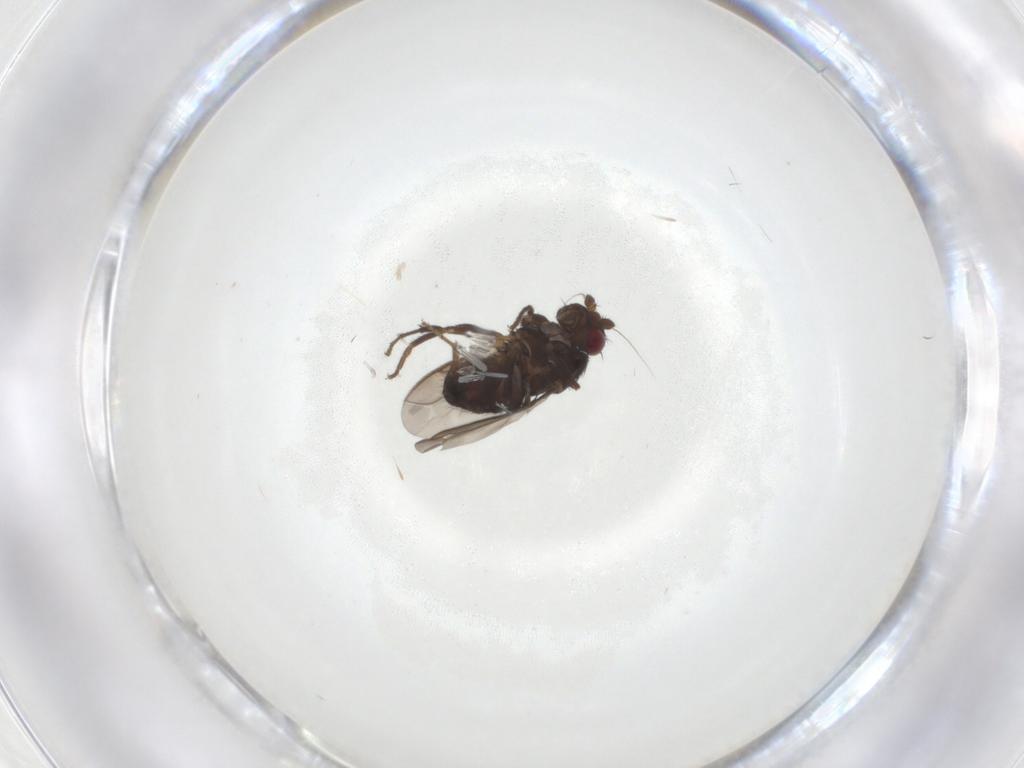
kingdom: Animalia
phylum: Arthropoda
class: Insecta
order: Diptera
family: Sphaeroceridae
